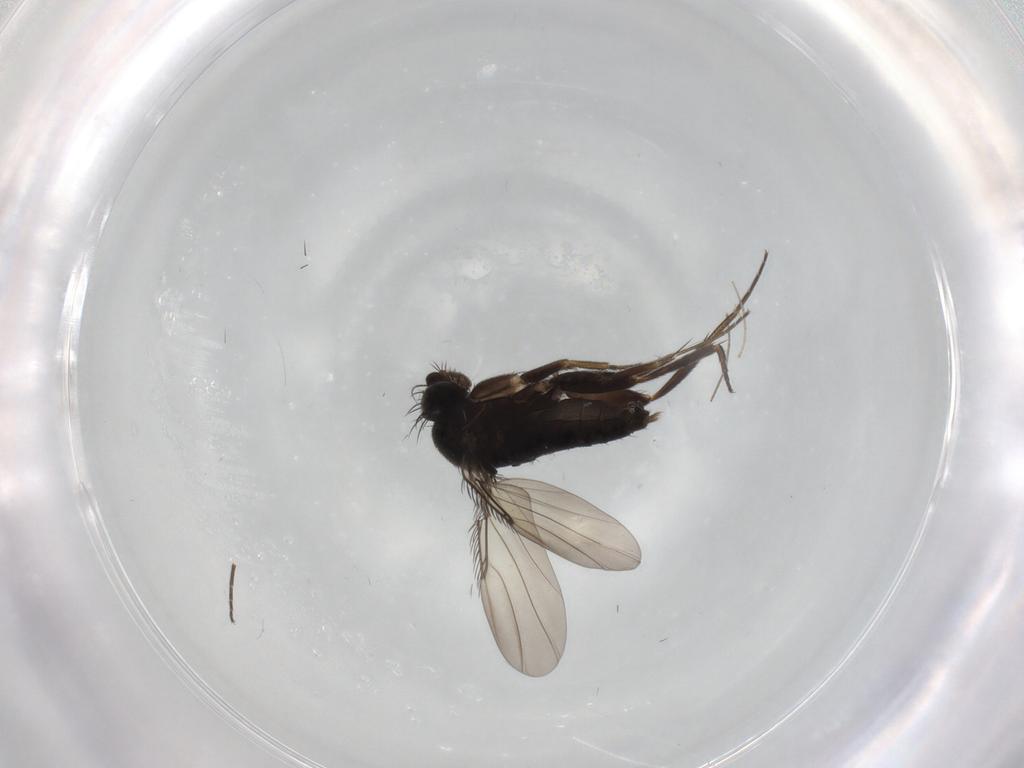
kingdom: Animalia
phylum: Arthropoda
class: Insecta
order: Diptera
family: Phoridae
